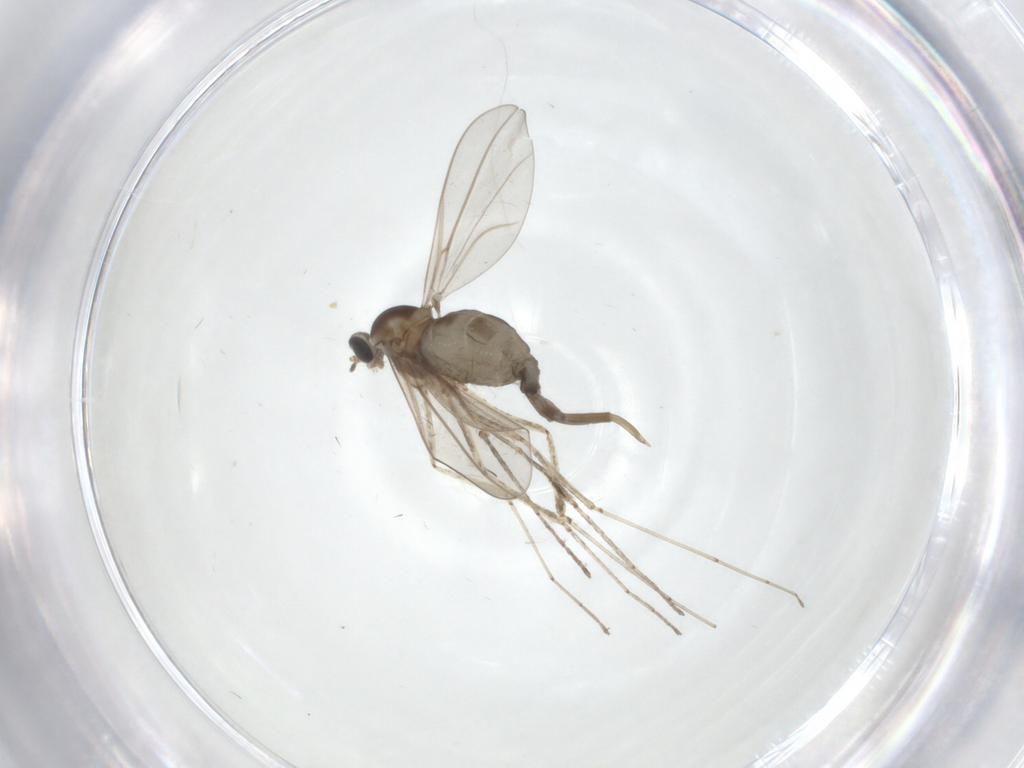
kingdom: Animalia
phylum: Arthropoda
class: Insecta
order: Diptera
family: Cecidomyiidae
